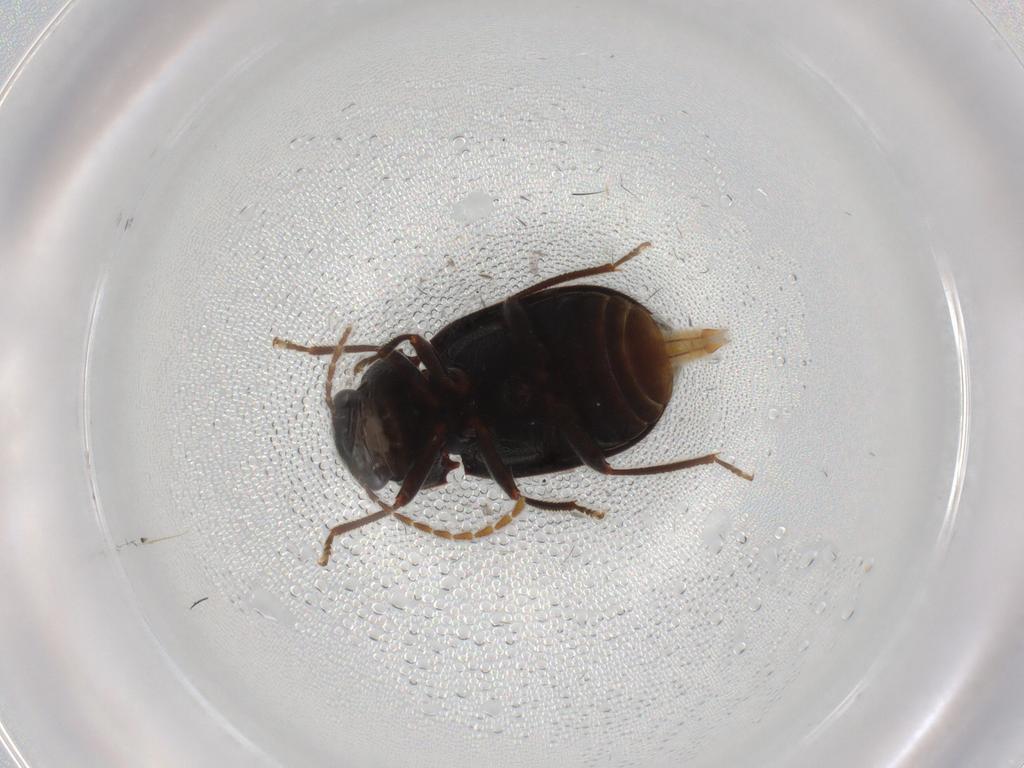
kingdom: Animalia
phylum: Arthropoda
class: Insecta
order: Coleoptera
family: Ptilodactylidae
